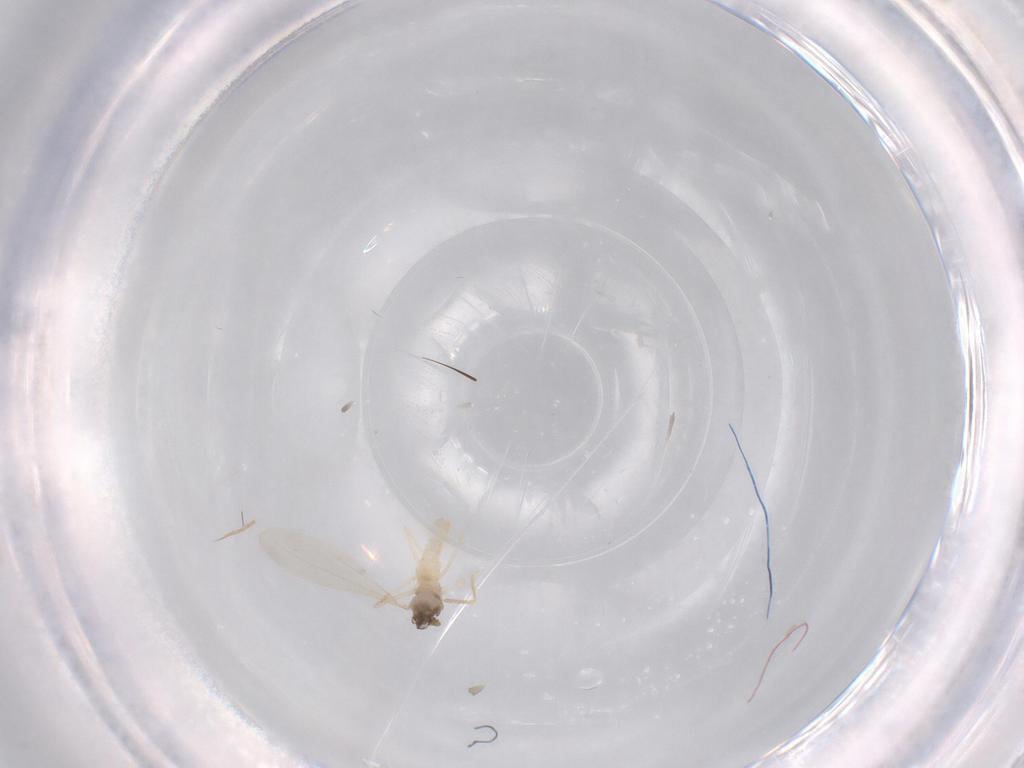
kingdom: Animalia
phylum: Arthropoda
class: Insecta
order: Diptera
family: Cecidomyiidae
